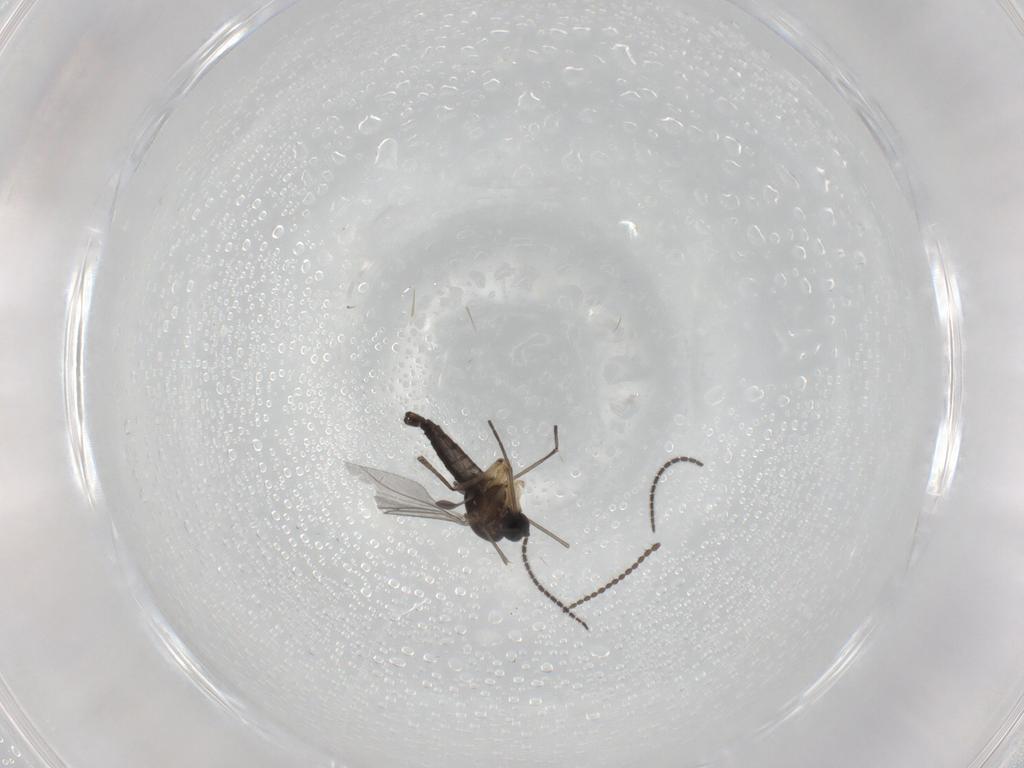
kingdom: Animalia
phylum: Arthropoda
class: Insecta
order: Diptera
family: Sciaridae
